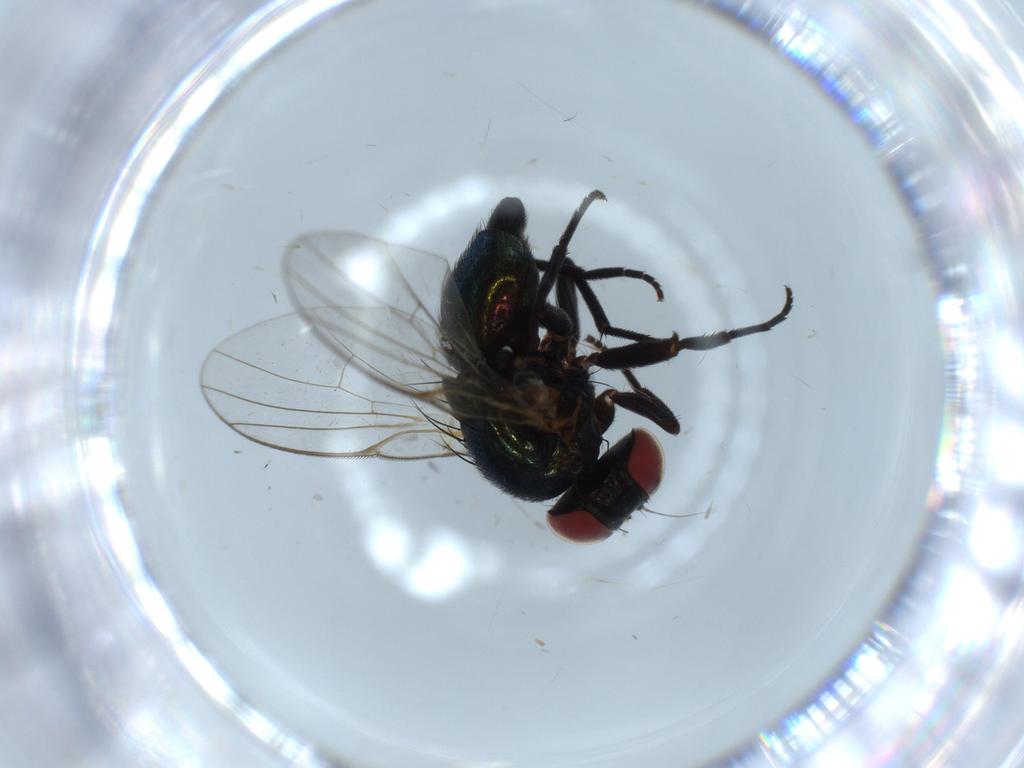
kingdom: Animalia
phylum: Arthropoda
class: Insecta
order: Diptera
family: Agromyzidae
